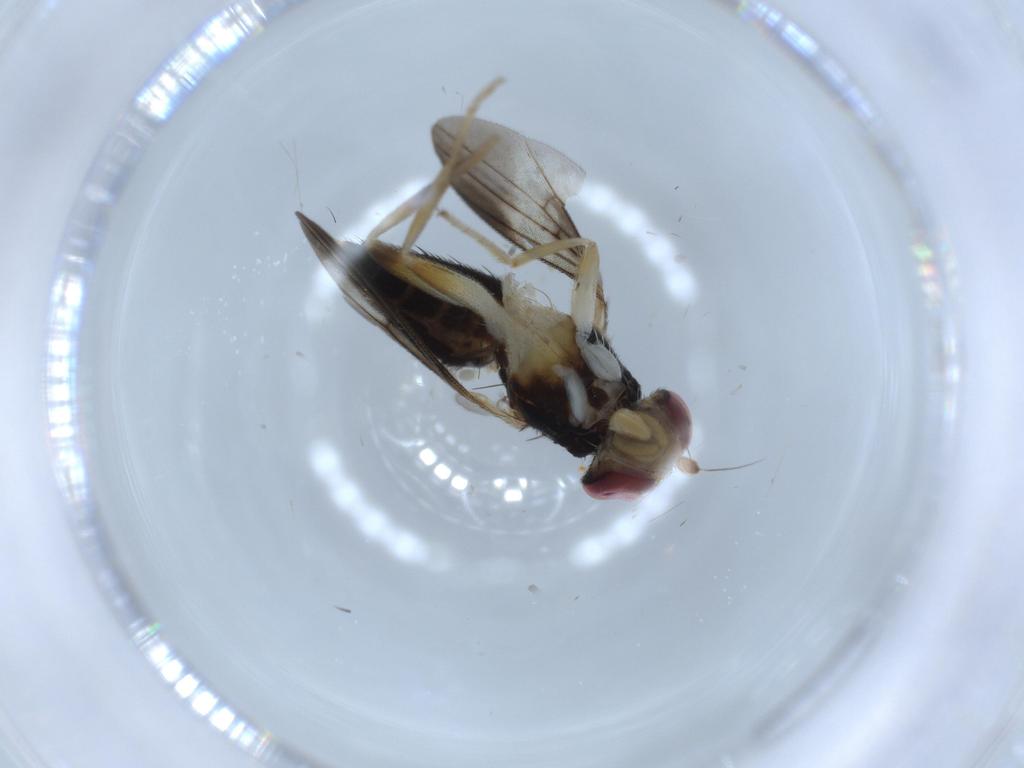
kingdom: Animalia
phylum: Arthropoda
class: Insecta
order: Diptera
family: Clusiidae
